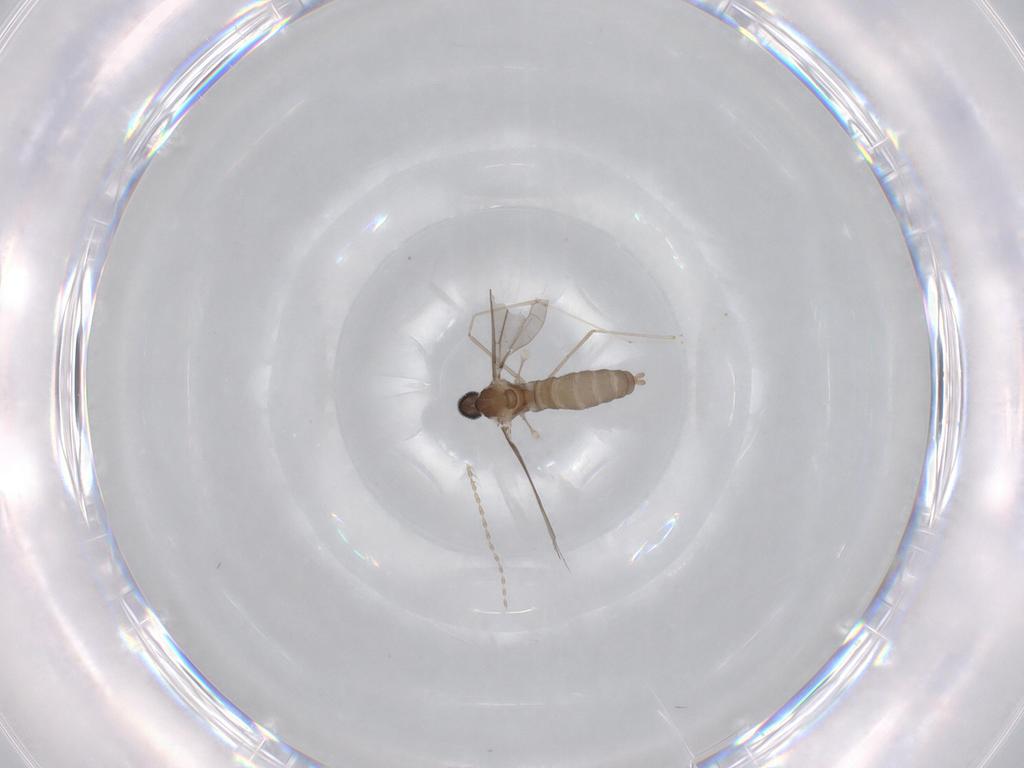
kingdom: Animalia
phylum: Arthropoda
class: Insecta
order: Diptera
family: Cecidomyiidae
